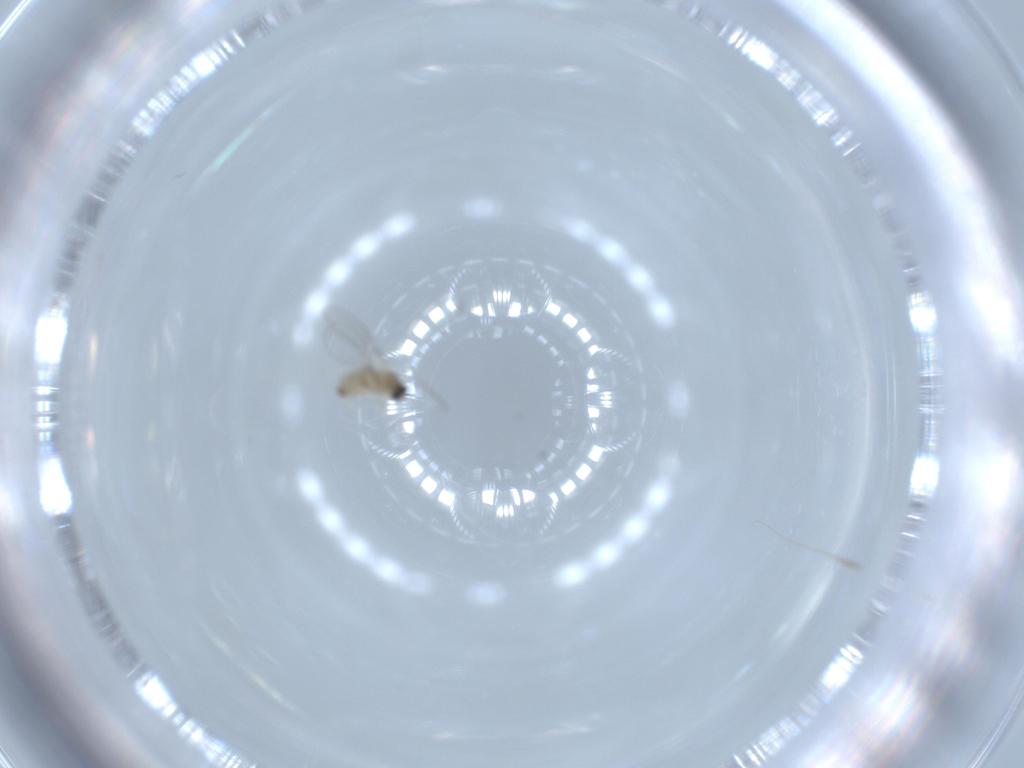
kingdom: Animalia
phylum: Arthropoda
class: Insecta
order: Diptera
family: Cecidomyiidae
